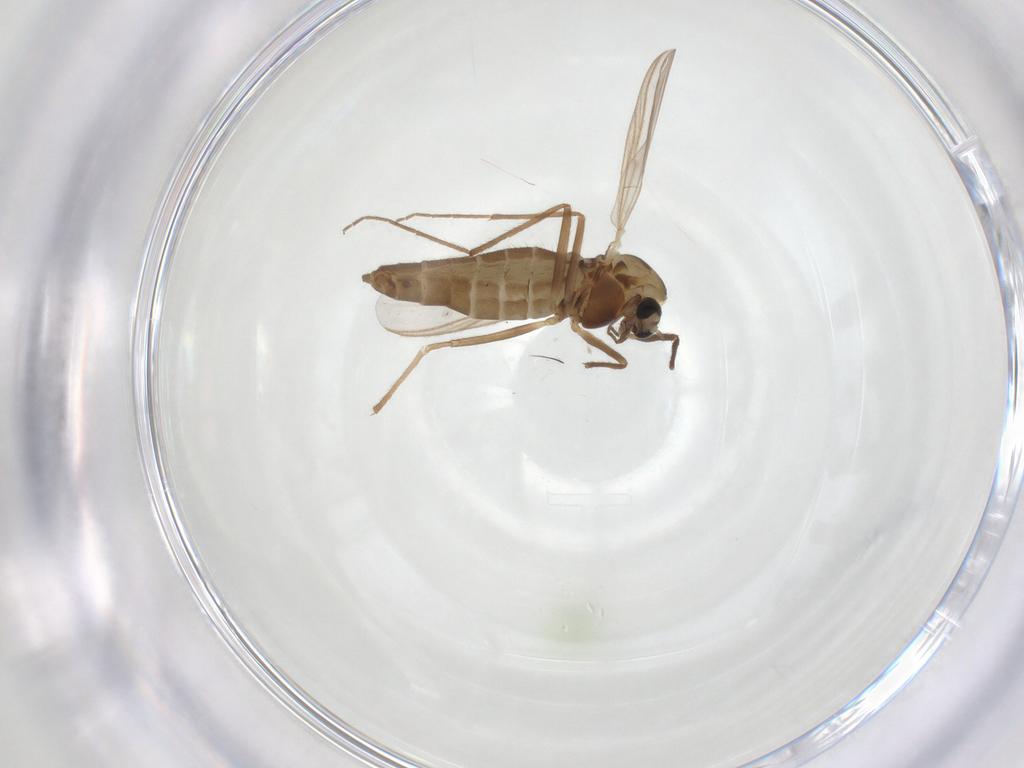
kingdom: Animalia
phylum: Arthropoda
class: Insecta
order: Diptera
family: Chironomidae
